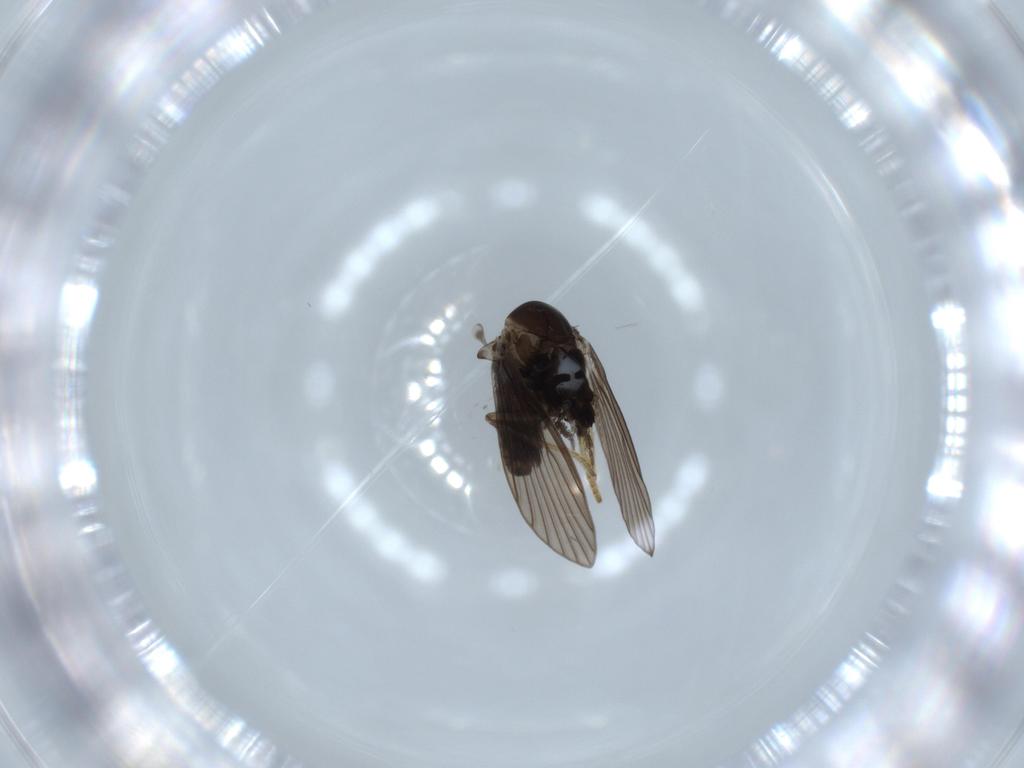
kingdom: Animalia
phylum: Arthropoda
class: Insecta
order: Diptera
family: Psychodidae
